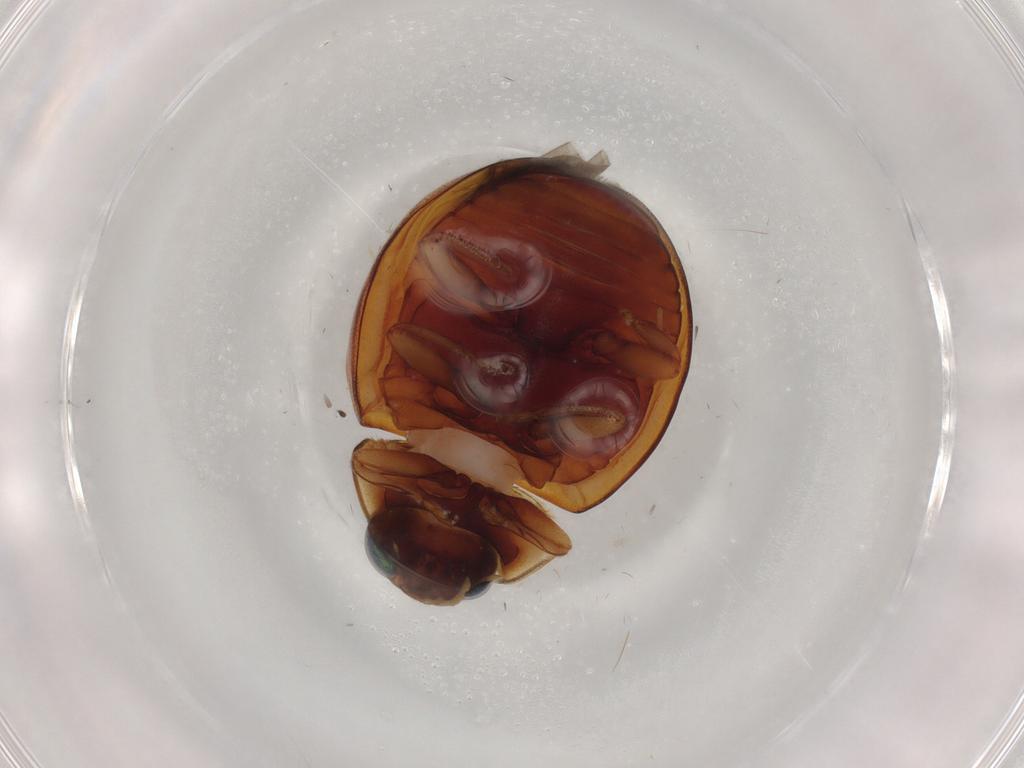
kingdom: Animalia
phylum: Arthropoda
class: Insecta
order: Coleoptera
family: Coccinellidae
